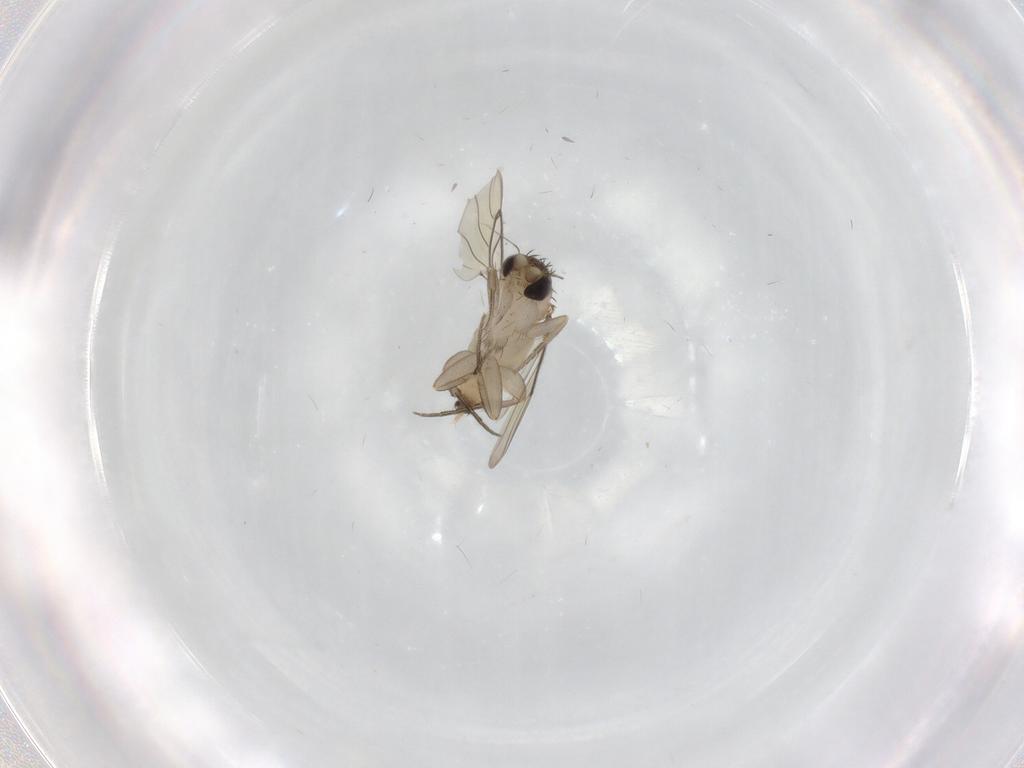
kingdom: Animalia
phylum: Arthropoda
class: Insecta
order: Diptera
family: Phoridae
